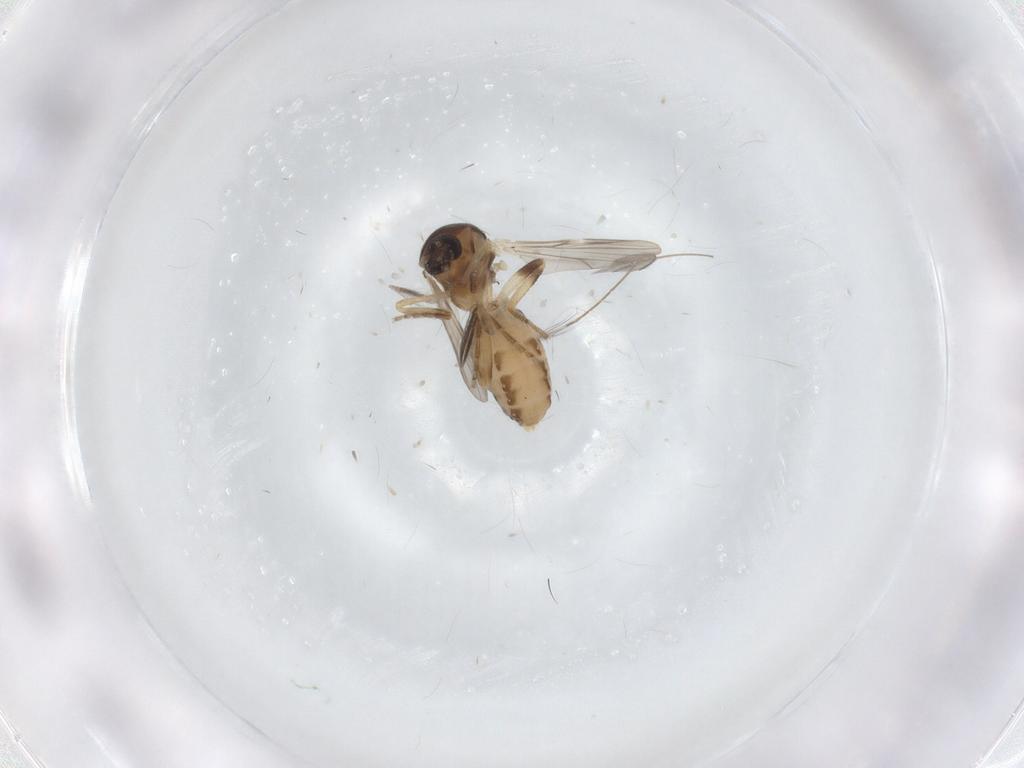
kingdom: Animalia
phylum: Arthropoda
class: Insecta
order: Diptera
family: Ceratopogonidae
